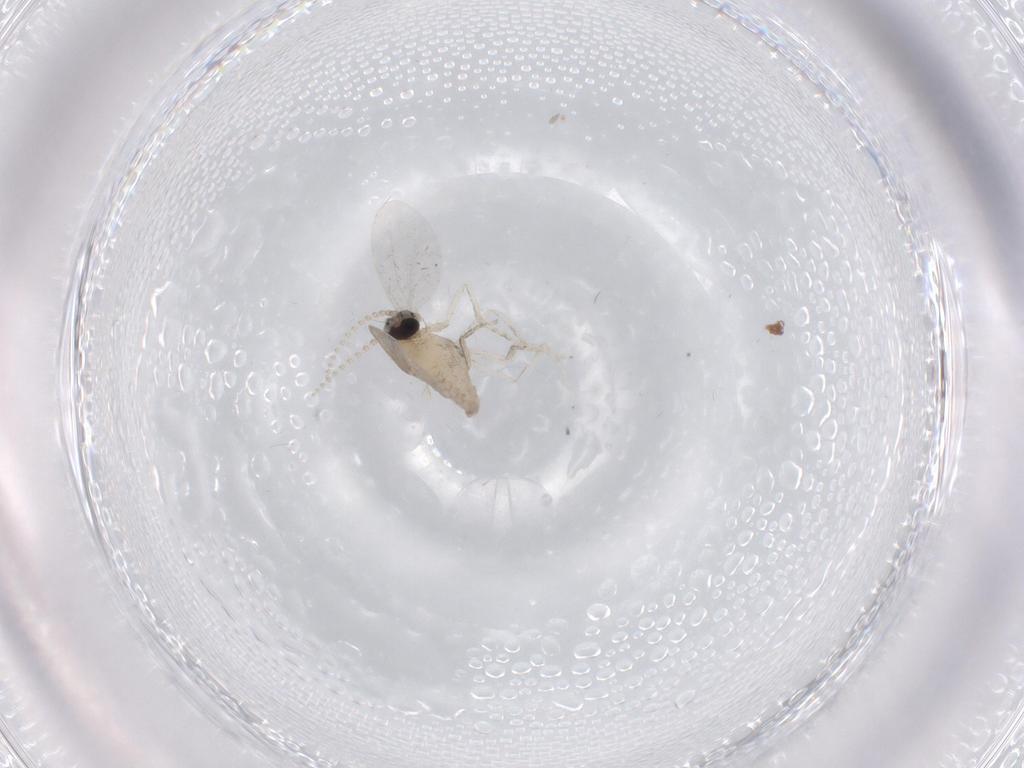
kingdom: Animalia
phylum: Arthropoda
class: Insecta
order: Diptera
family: Cecidomyiidae
